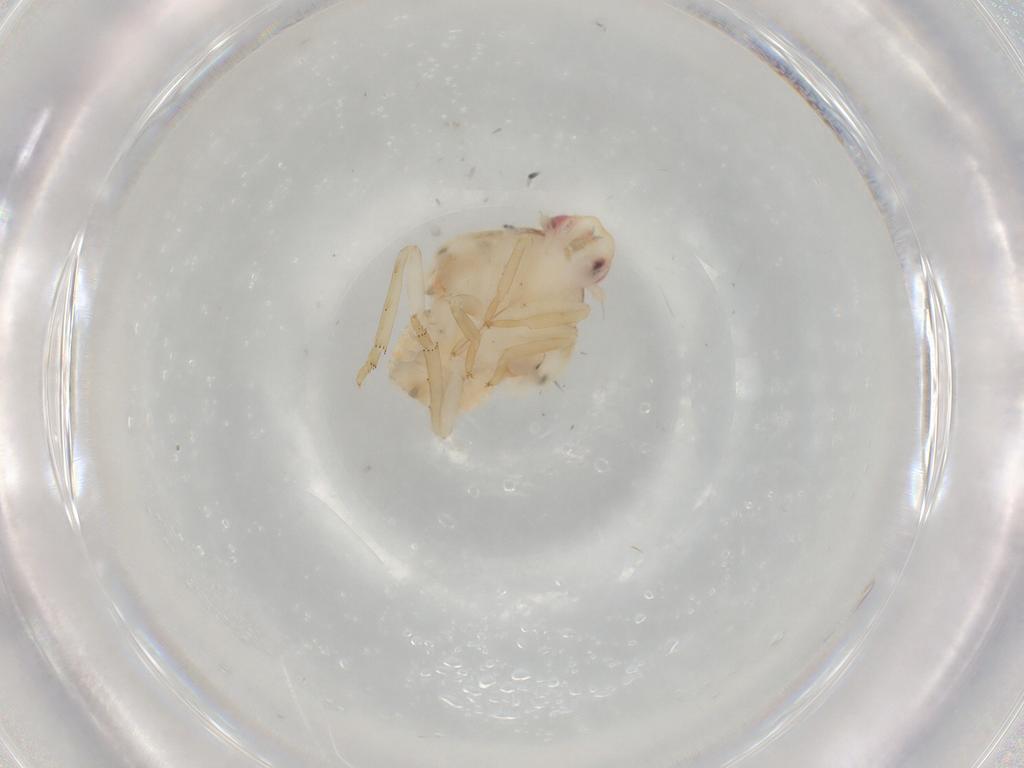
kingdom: Animalia
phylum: Arthropoda
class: Insecta
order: Hemiptera
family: Flatidae
